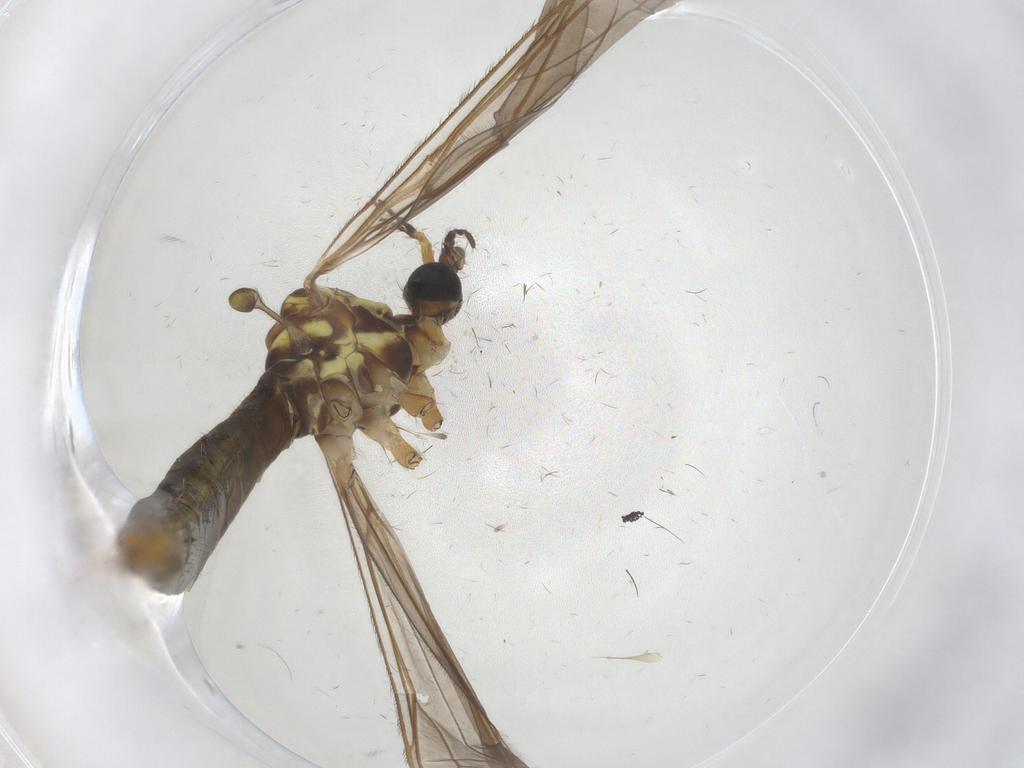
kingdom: Animalia
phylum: Arthropoda
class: Insecta
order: Diptera
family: Sphaeroceridae
